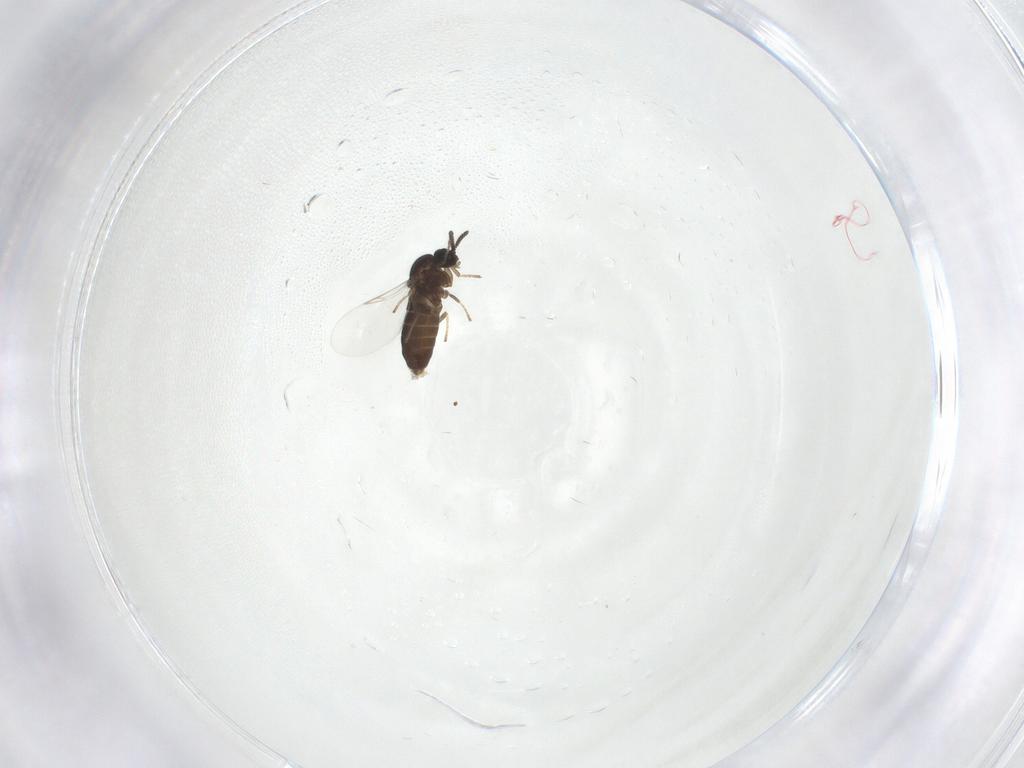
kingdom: Animalia
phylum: Arthropoda
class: Insecta
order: Diptera
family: Scatopsidae
